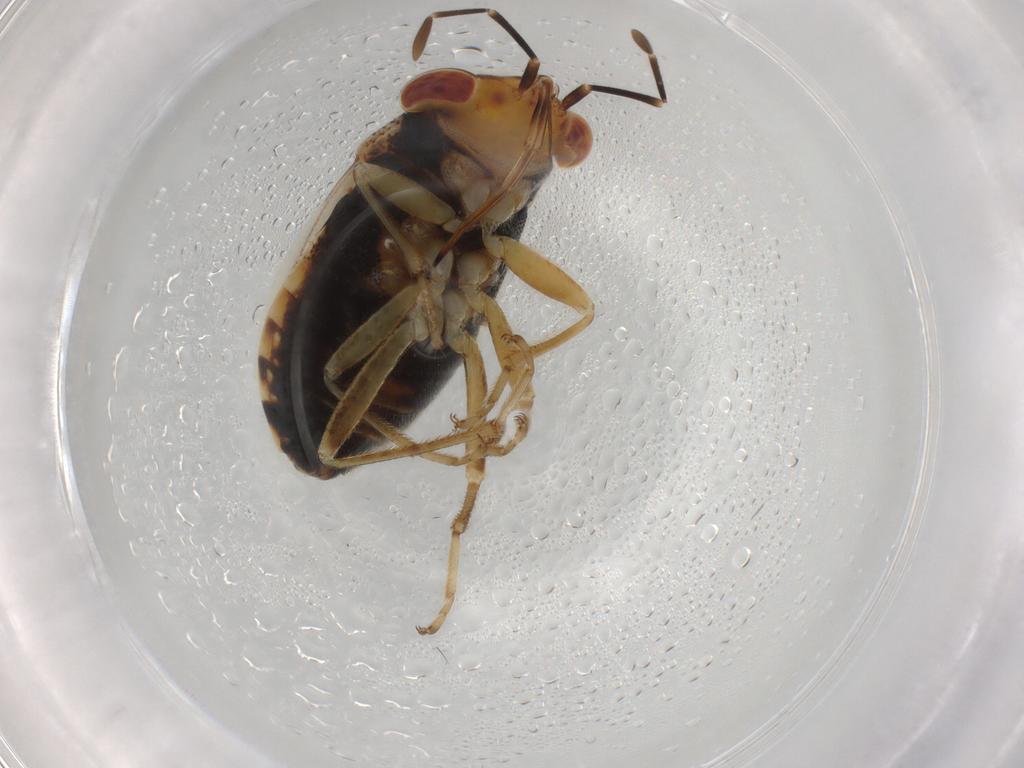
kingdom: Animalia
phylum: Arthropoda
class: Insecta
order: Hemiptera
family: Geocoridae
